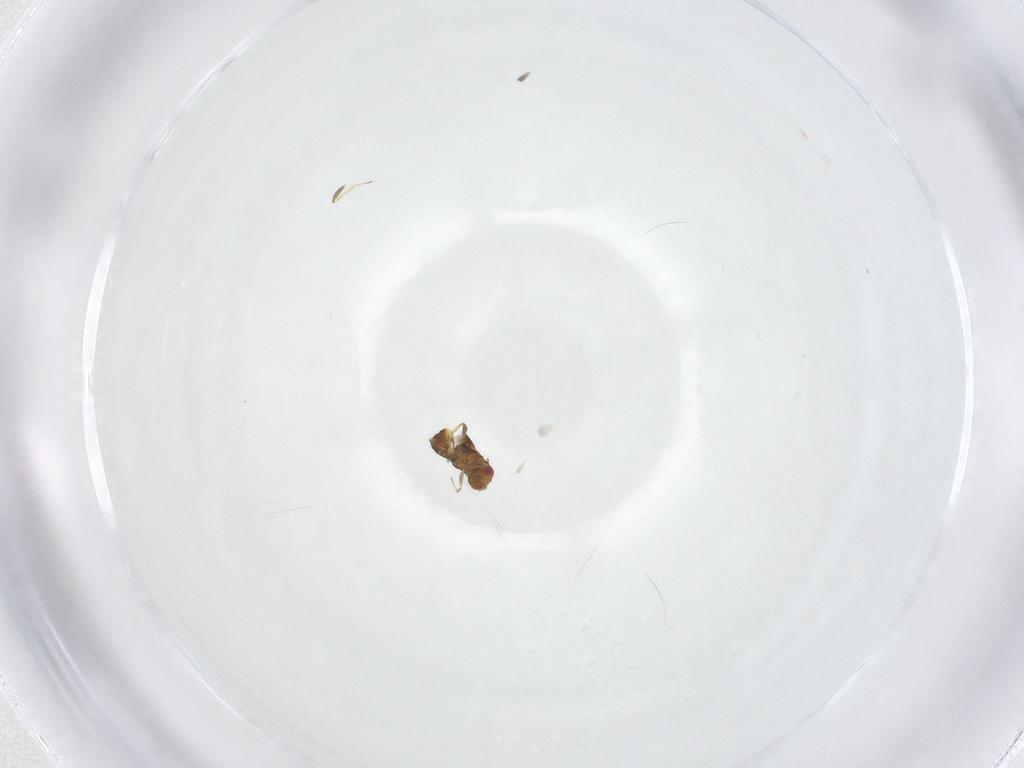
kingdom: Animalia
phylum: Arthropoda
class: Insecta
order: Hymenoptera
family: Trichogrammatidae
